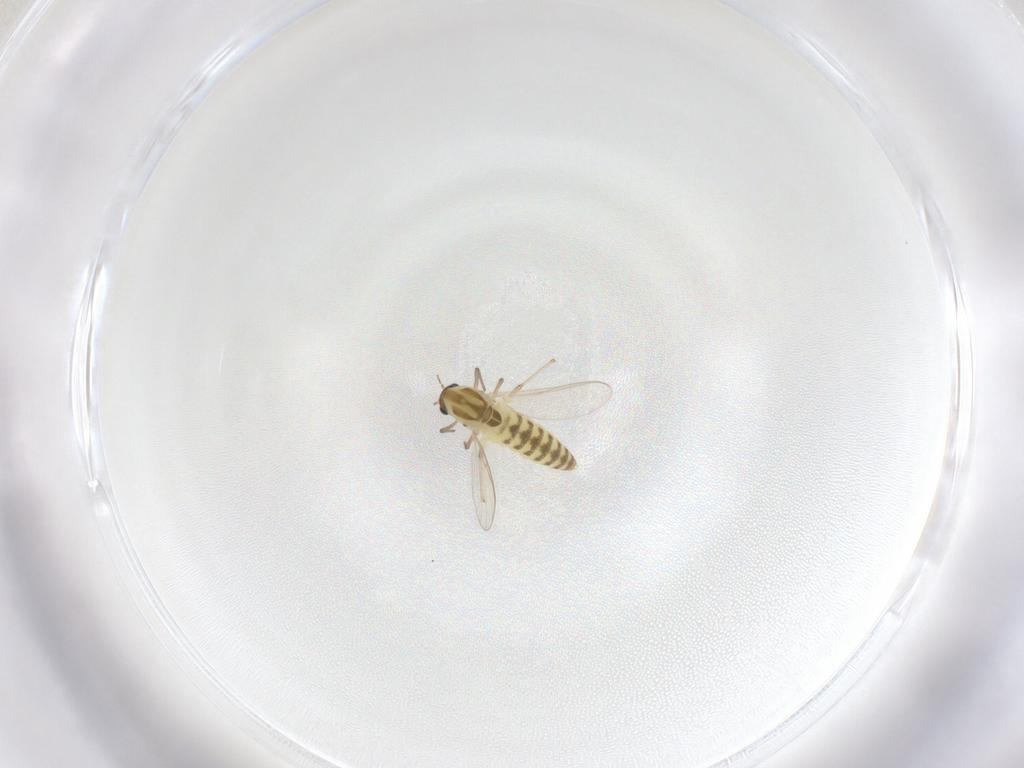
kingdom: Animalia
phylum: Arthropoda
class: Insecta
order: Diptera
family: Chironomidae
